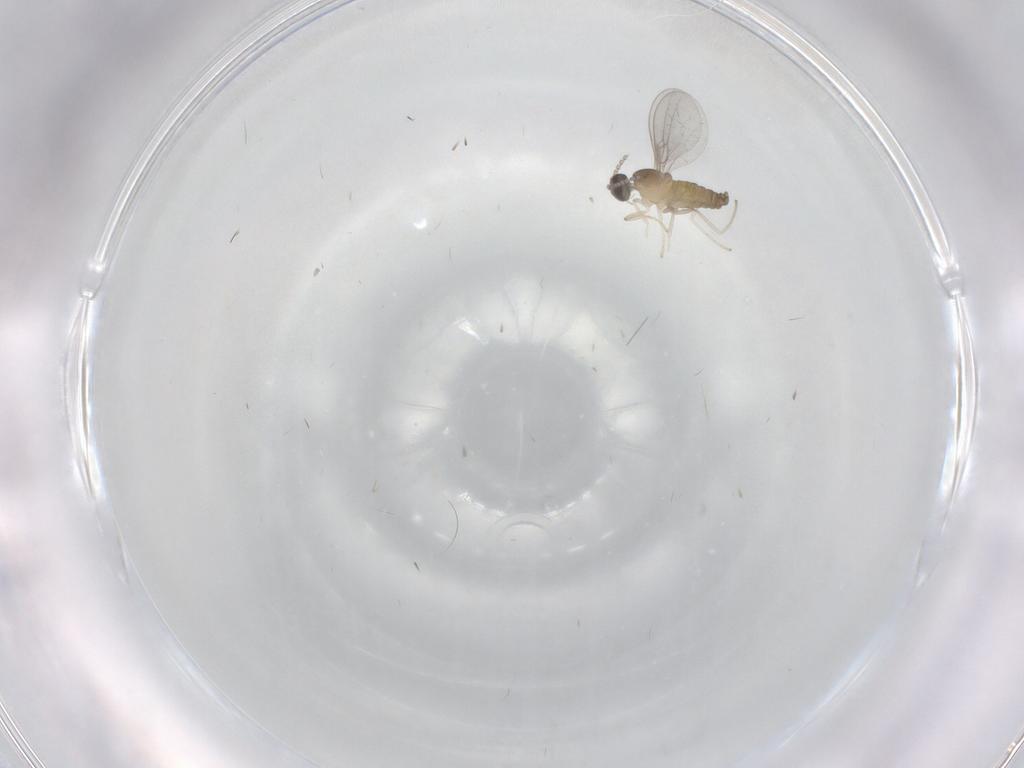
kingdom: Animalia
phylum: Arthropoda
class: Insecta
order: Diptera
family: Cecidomyiidae
